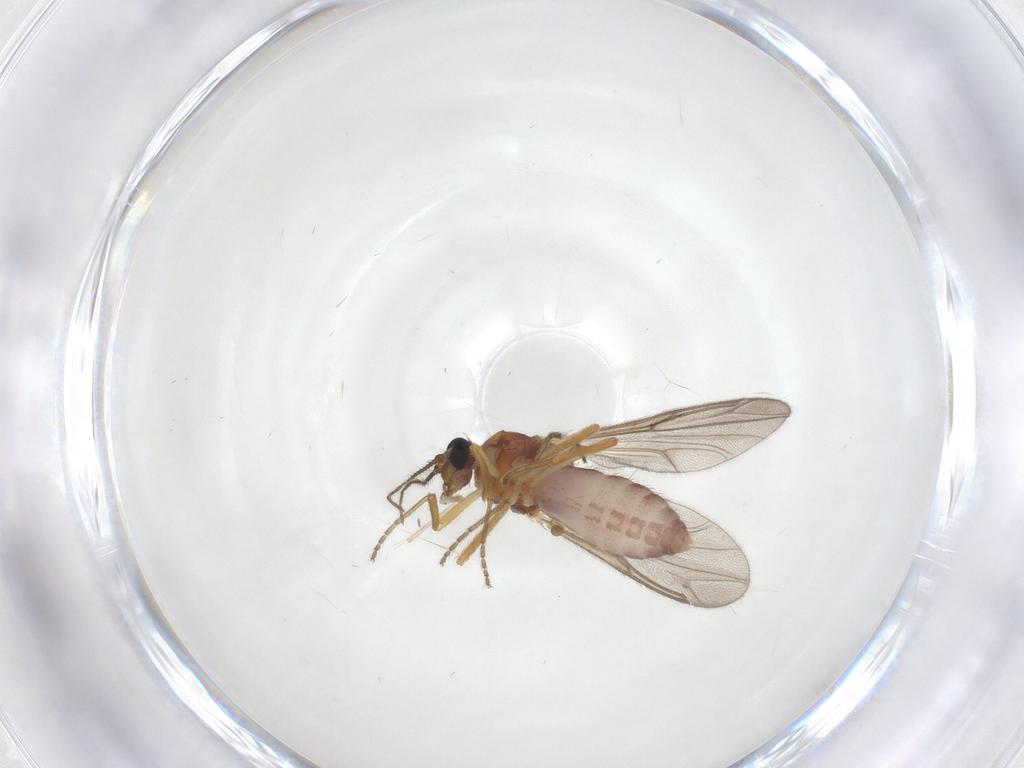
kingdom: Animalia
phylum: Arthropoda
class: Insecta
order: Diptera
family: Ceratopogonidae
